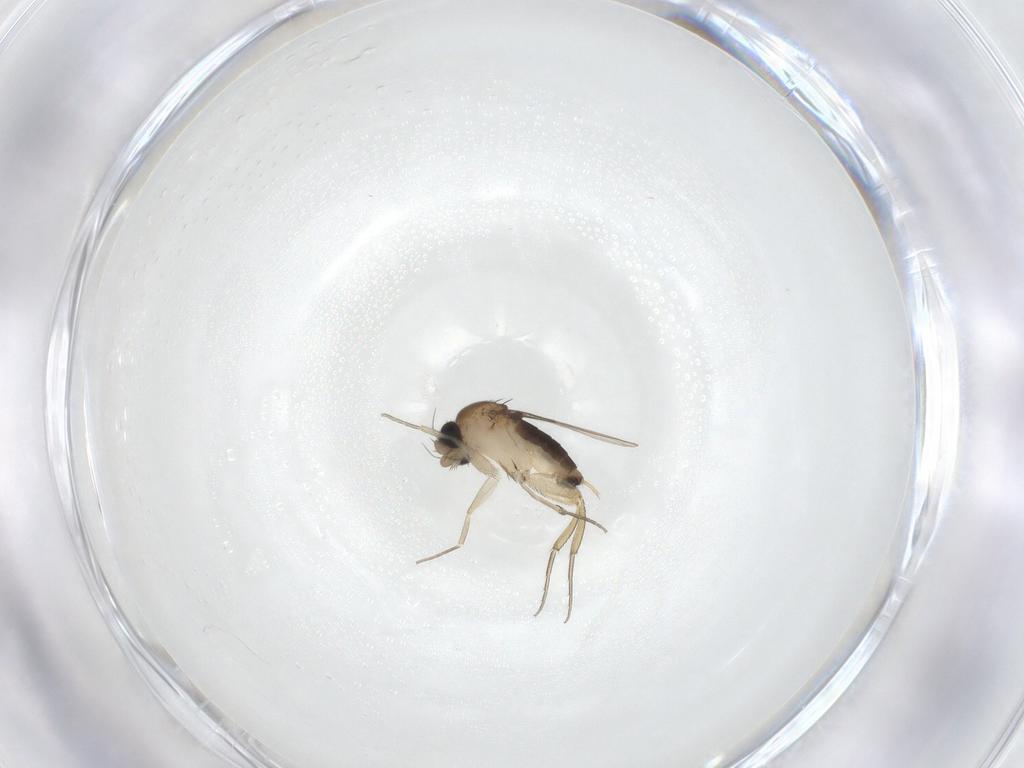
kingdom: Animalia
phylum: Arthropoda
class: Insecta
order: Diptera
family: Phoridae
